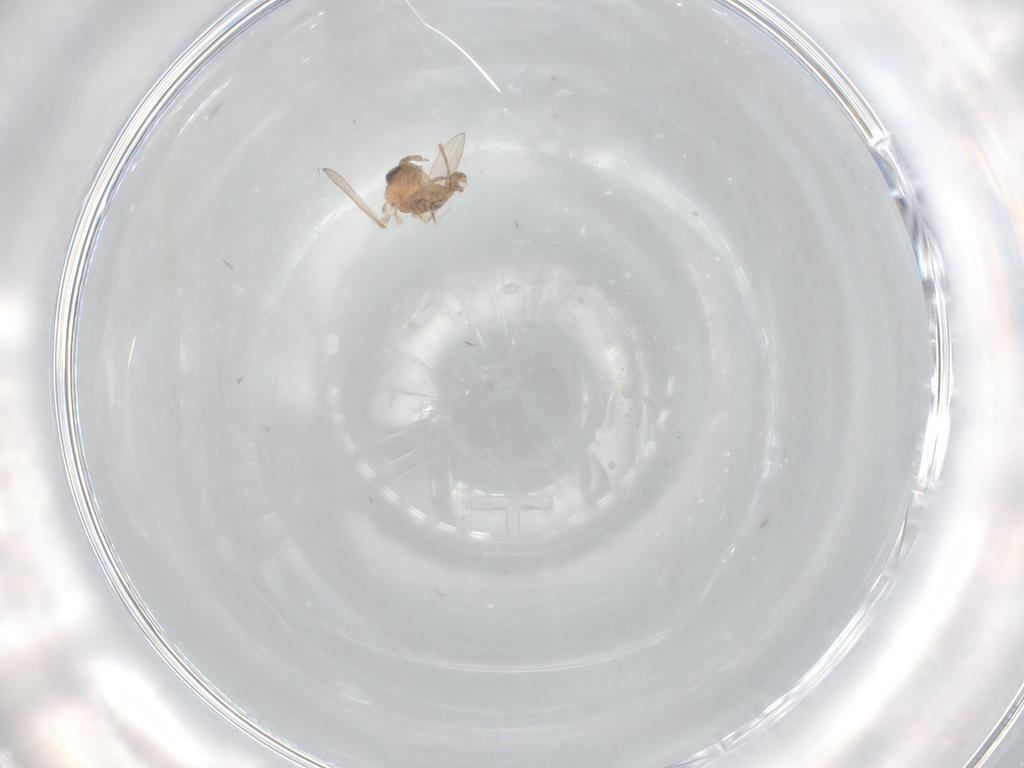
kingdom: Animalia
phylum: Arthropoda
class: Insecta
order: Diptera
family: Psychodidae
